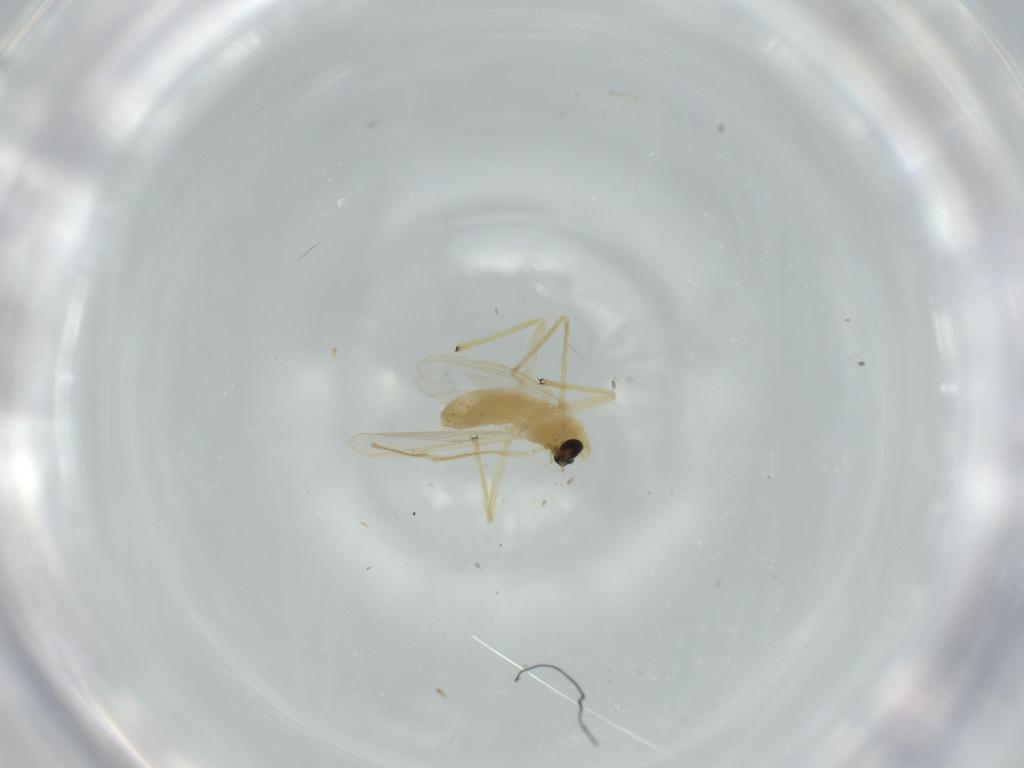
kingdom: Animalia
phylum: Arthropoda
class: Insecta
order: Diptera
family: Chironomidae
